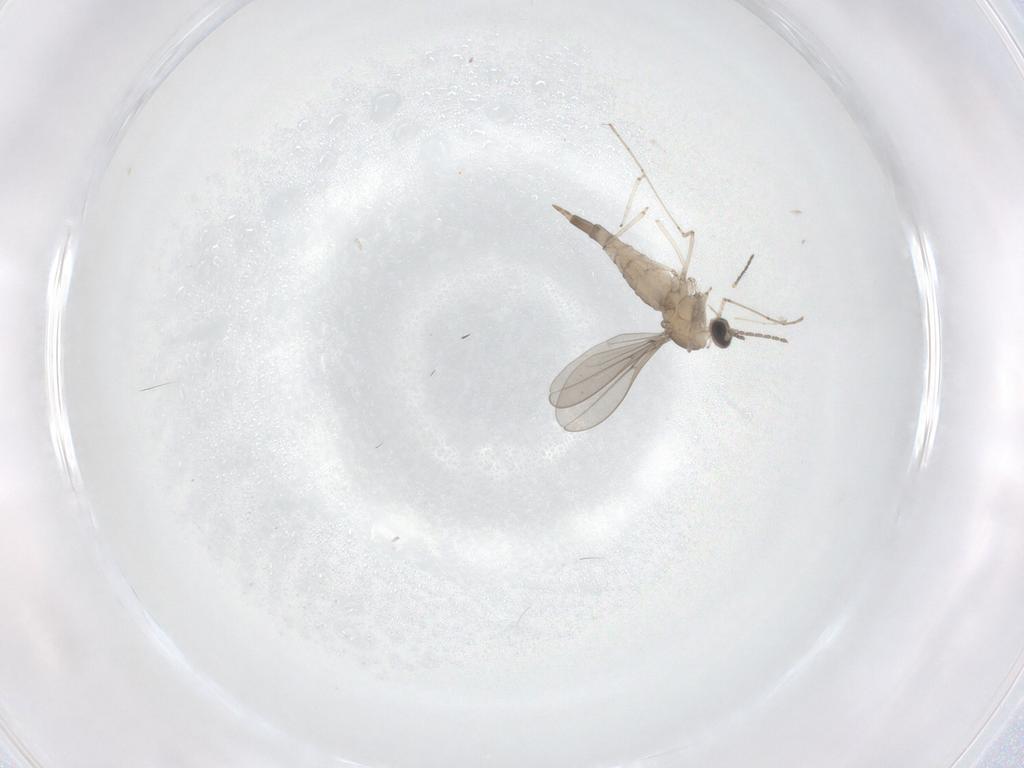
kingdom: Animalia
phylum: Arthropoda
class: Insecta
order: Diptera
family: Cecidomyiidae
